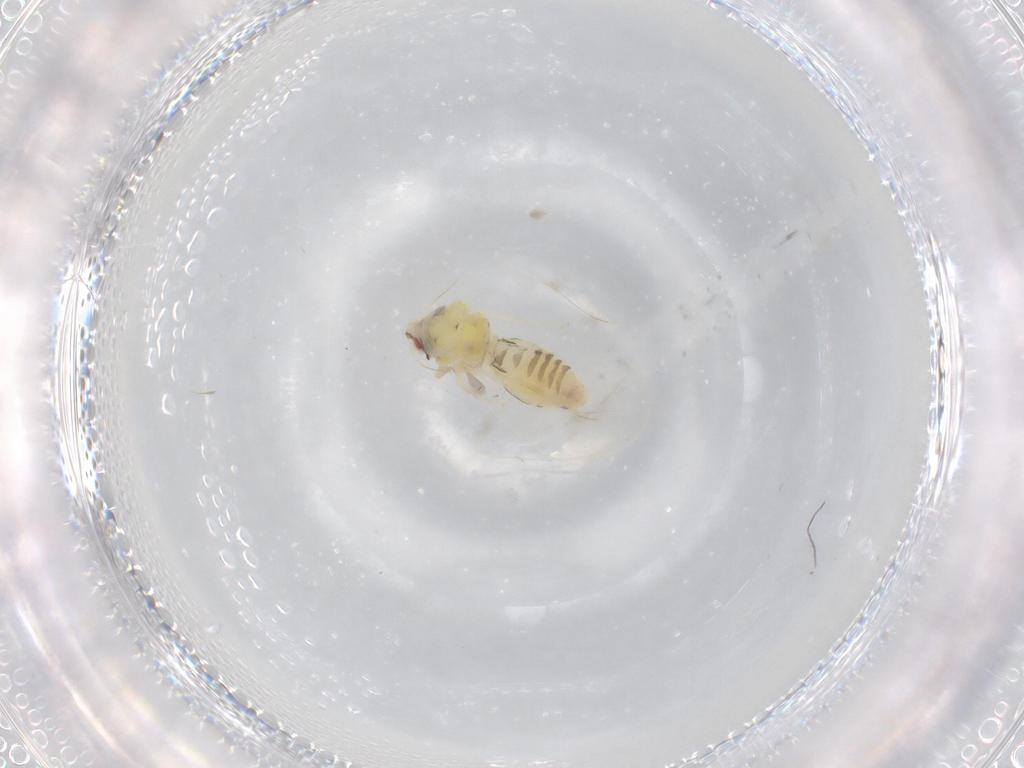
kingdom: Animalia
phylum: Arthropoda
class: Insecta
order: Hemiptera
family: Aleyrodidae
